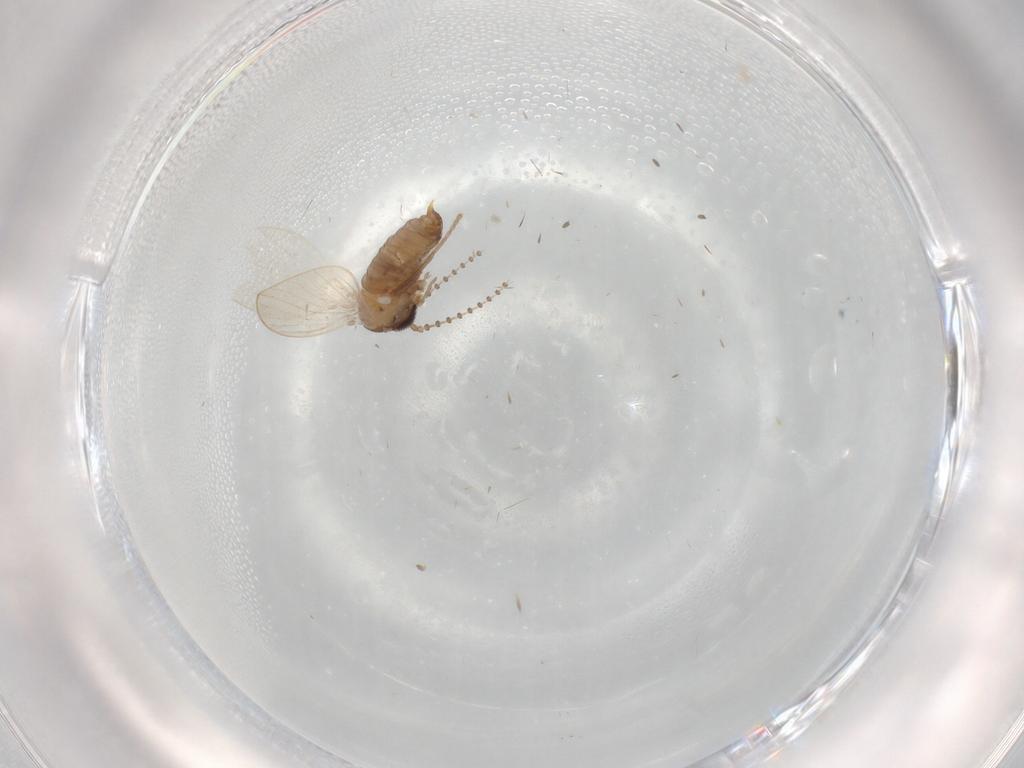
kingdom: Animalia
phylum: Arthropoda
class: Insecta
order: Diptera
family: Dolichopodidae
